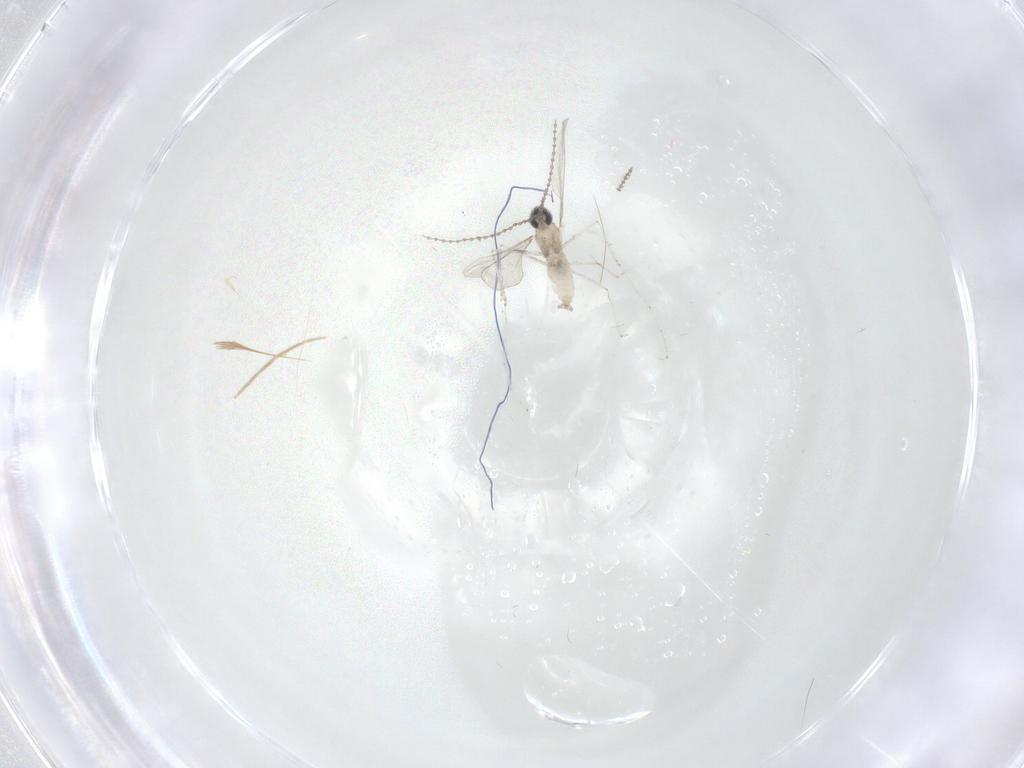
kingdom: Animalia
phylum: Arthropoda
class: Insecta
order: Diptera
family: Cecidomyiidae
